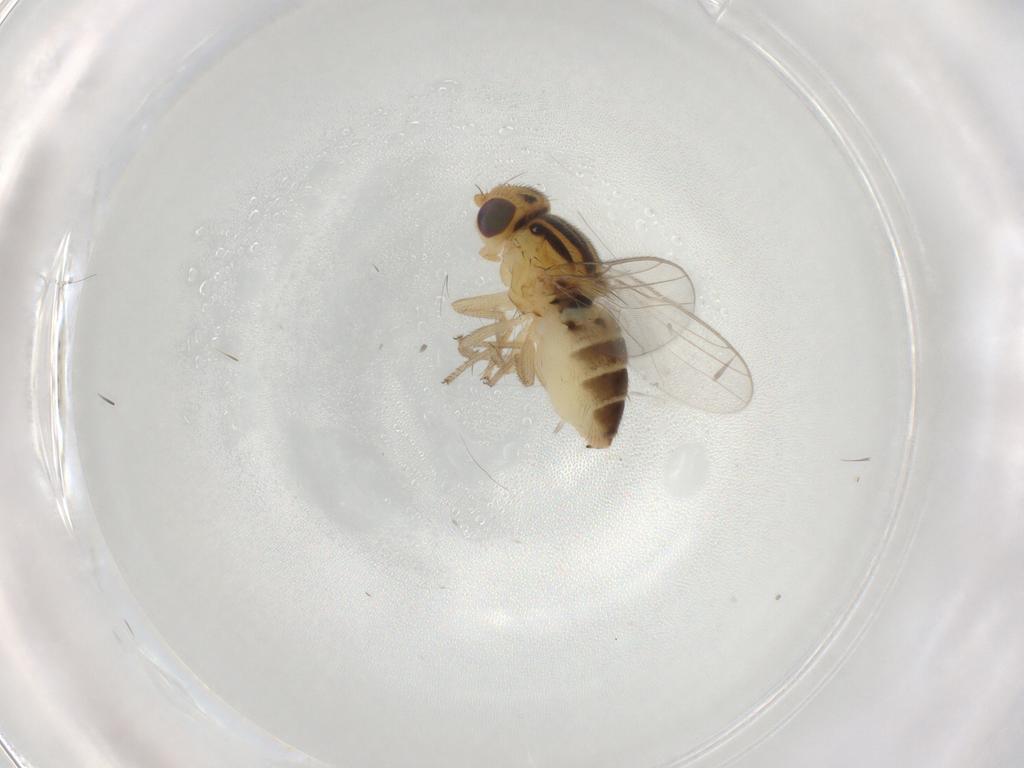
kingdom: Animalia
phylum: Arthropoda
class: Insecta
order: Diptera
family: Chloropidae
